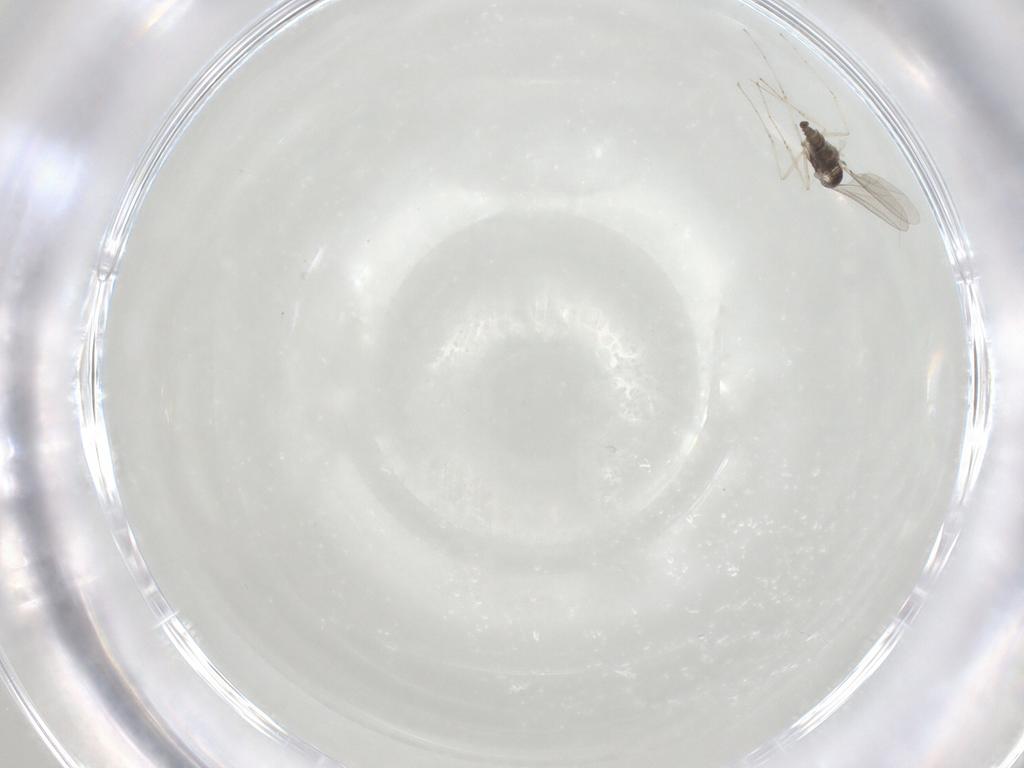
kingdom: Animalia
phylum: Arthropoda
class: Insecta
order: Diptera
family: Cecidomyiidae
